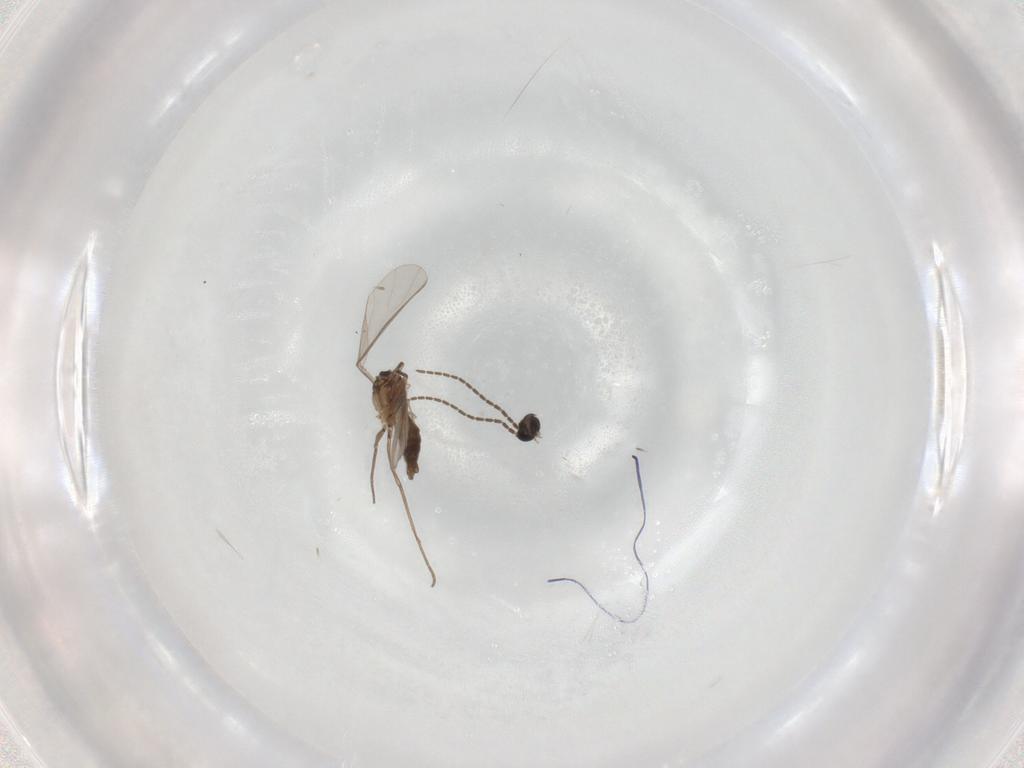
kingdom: Animalia
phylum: Arthropoda
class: Insecta
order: Diptera
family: Sciaridae
